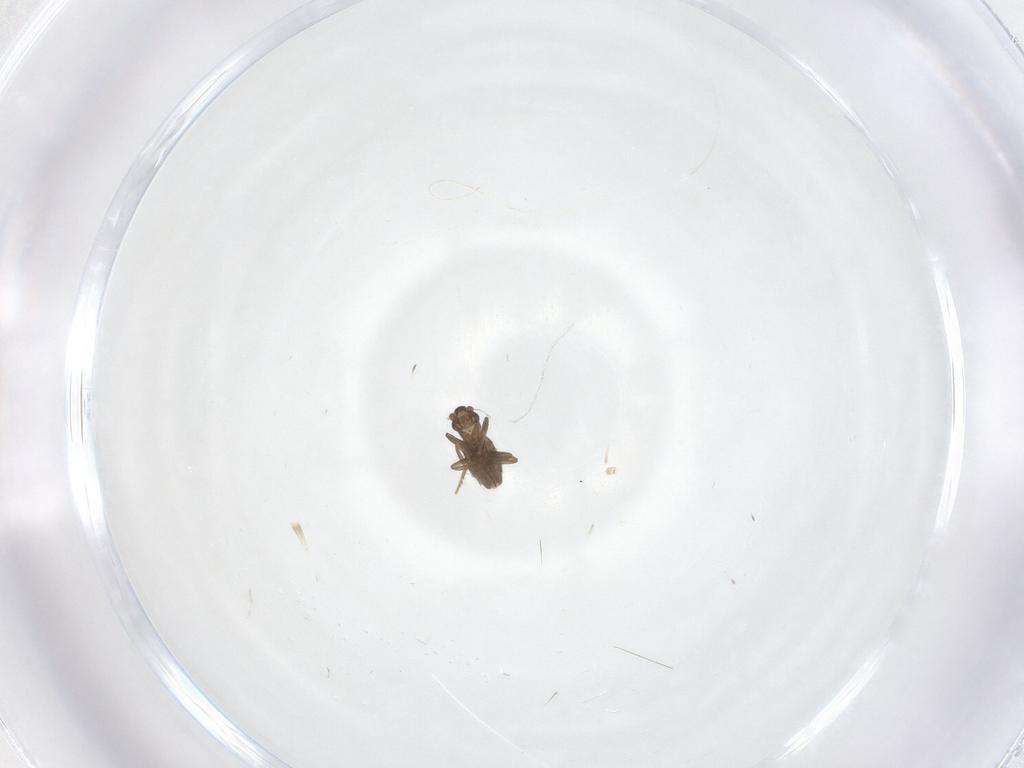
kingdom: Animalia
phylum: Arthropoda
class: Insecta
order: Diptera
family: Phoridae
